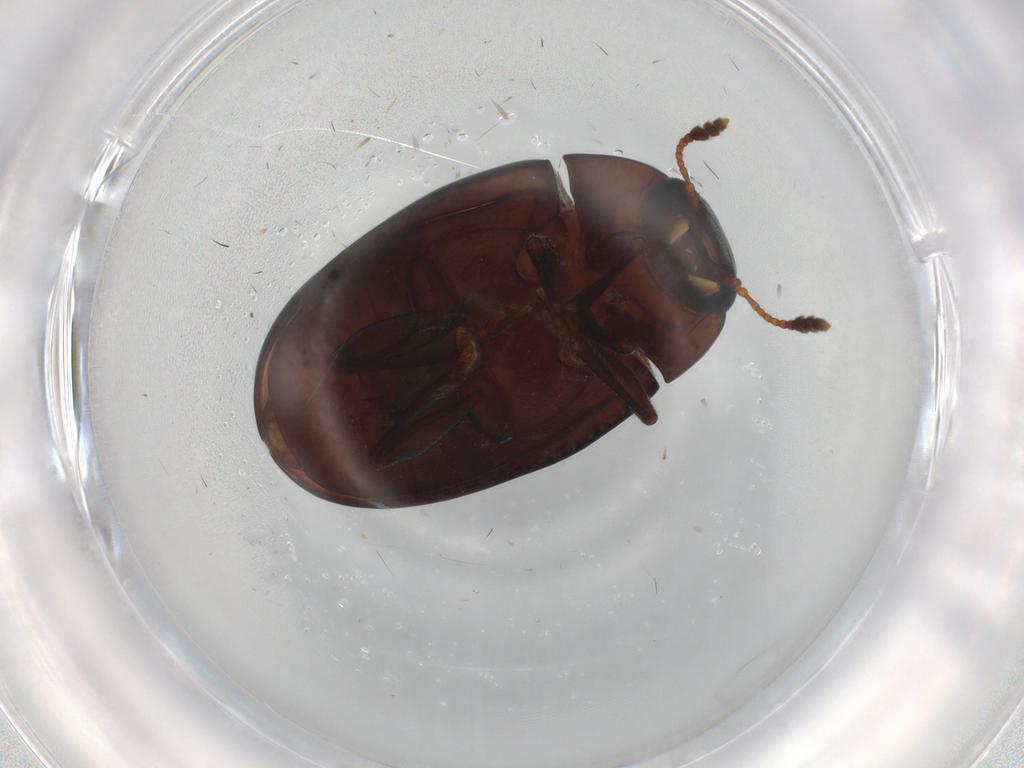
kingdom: Animalia
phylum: Arthropoda
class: Insecta
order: Coleoptera
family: Erotylidae
